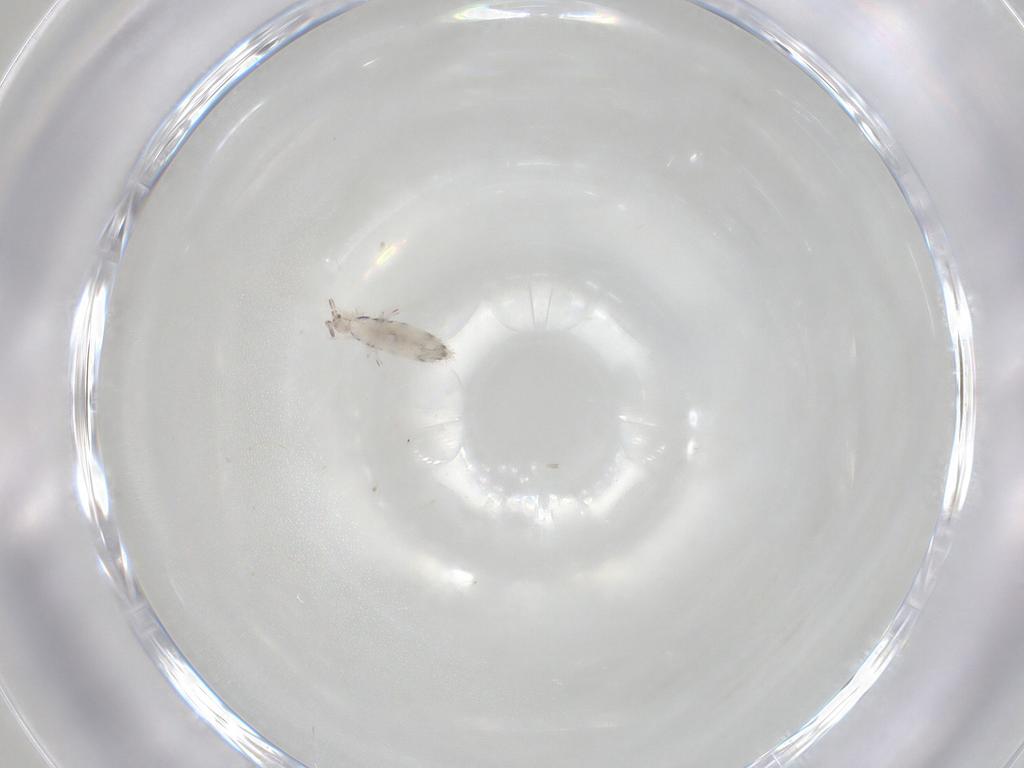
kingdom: Animalia
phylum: Arthropoda
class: Collembola
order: Entomobryomorpha
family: Entomobryidae
